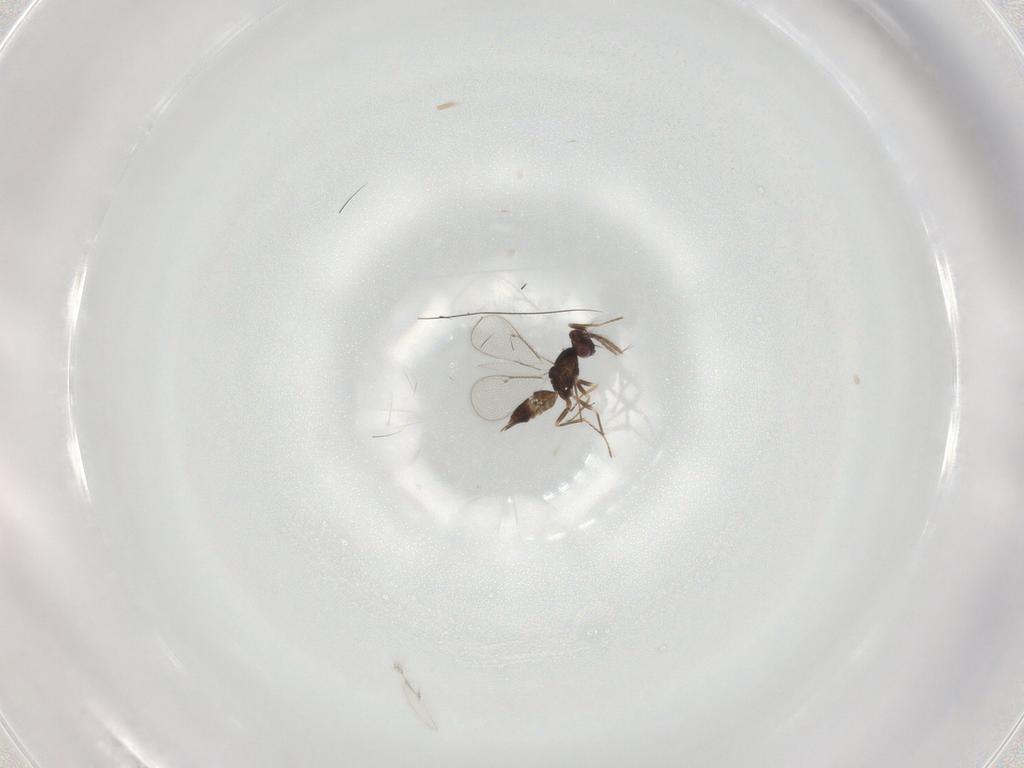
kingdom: Animalia
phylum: Arthropoda
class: Insecta
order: Hymenoptera
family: Eulophidae
